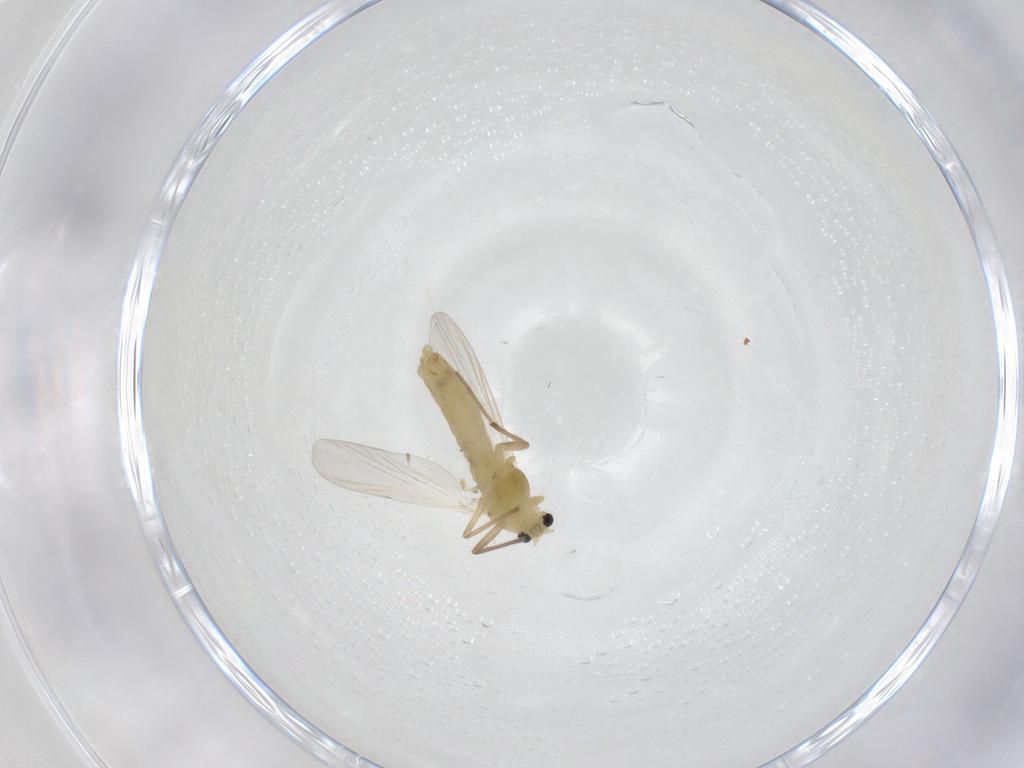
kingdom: Animalia
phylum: Arthropoda
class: Insecta
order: Diptera
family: Chironomidae
